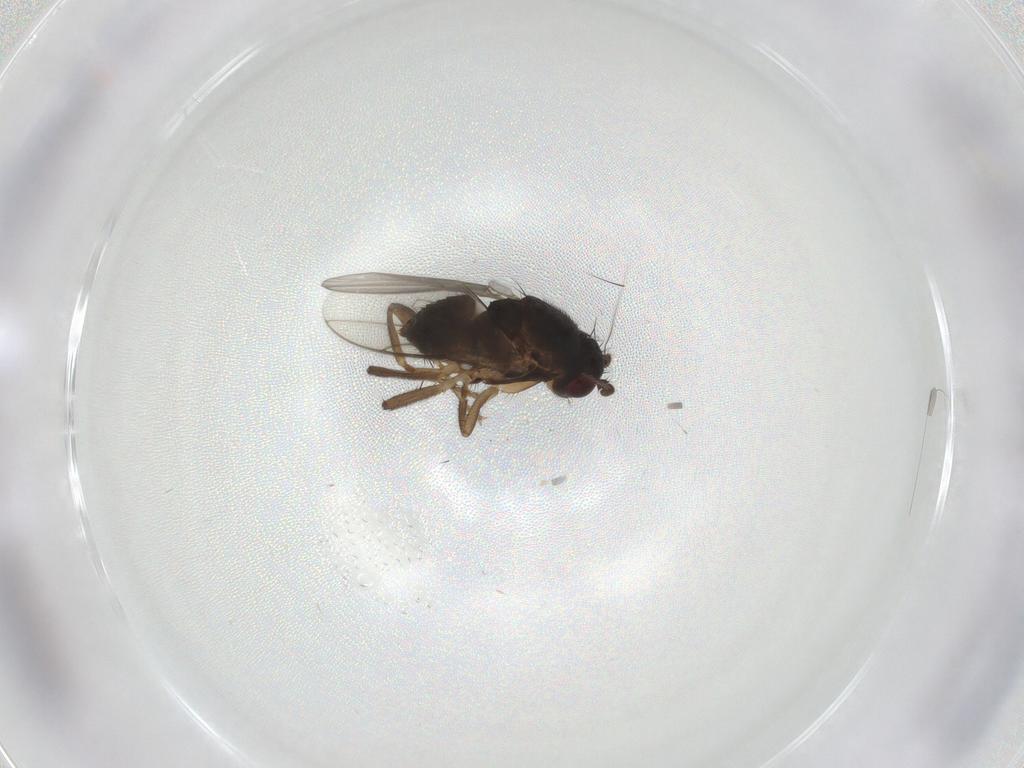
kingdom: Animalia
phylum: Arthropoda
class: Insecta
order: Diptera
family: Sphaeroceridae
